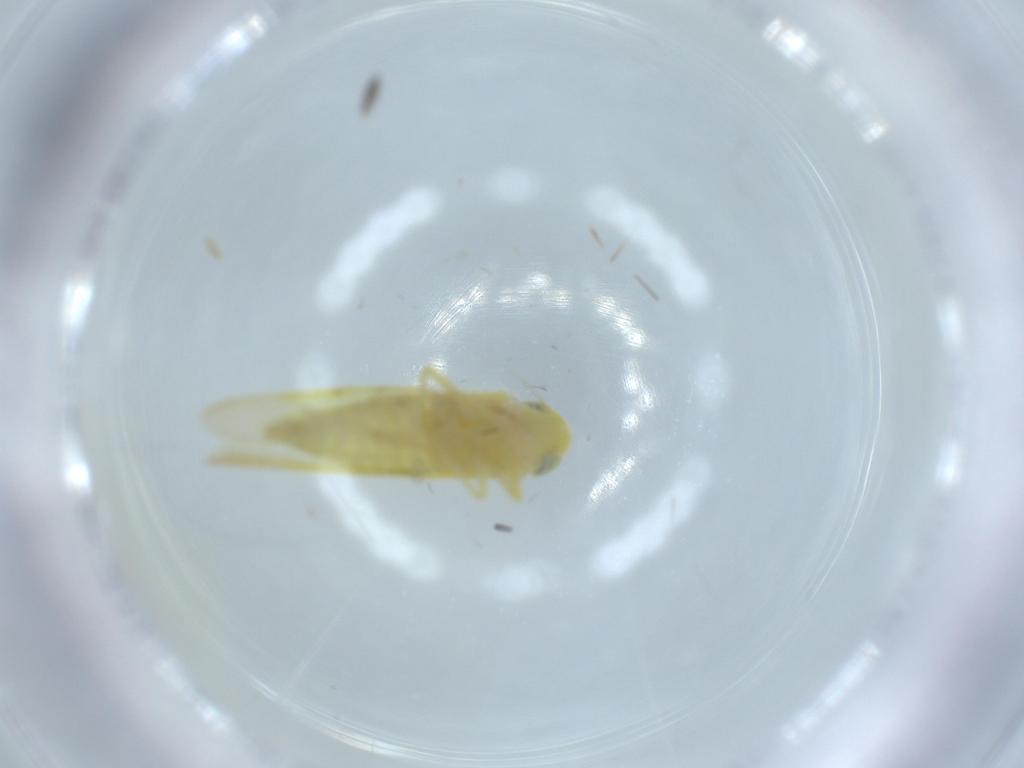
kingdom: Animalia
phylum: Arthropoda
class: Insecta
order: Hemiptera
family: Cicadellidae
